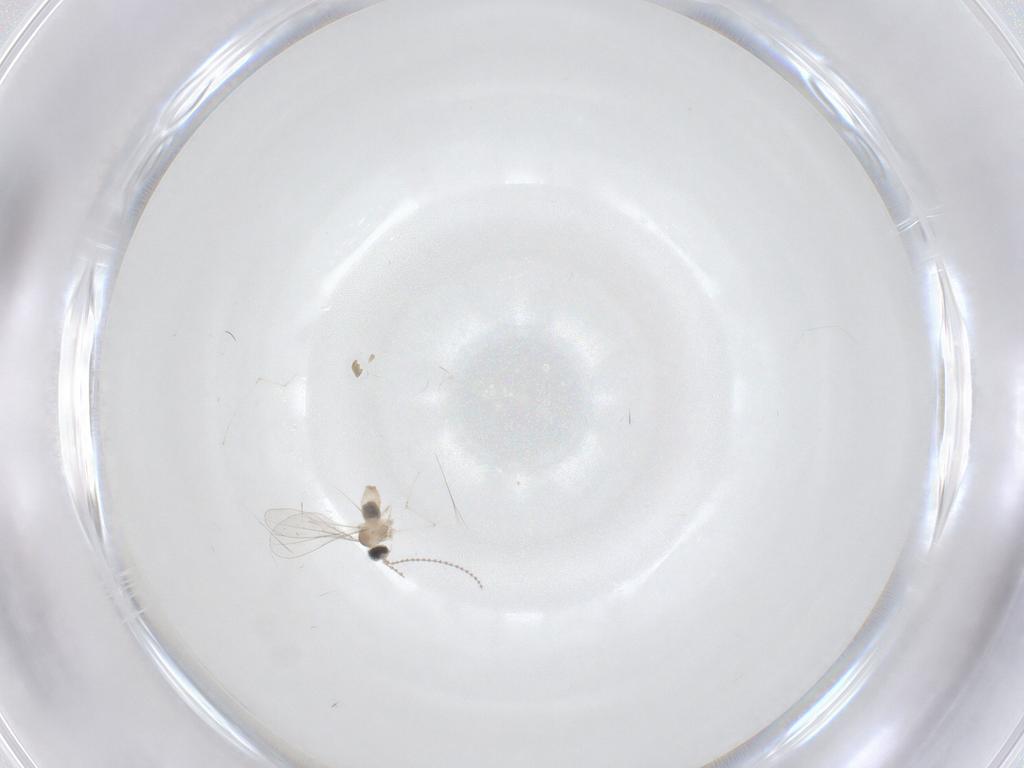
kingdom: Animalia
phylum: Arthropoda
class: Insecta
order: Diptera
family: Cecidomyiidae
